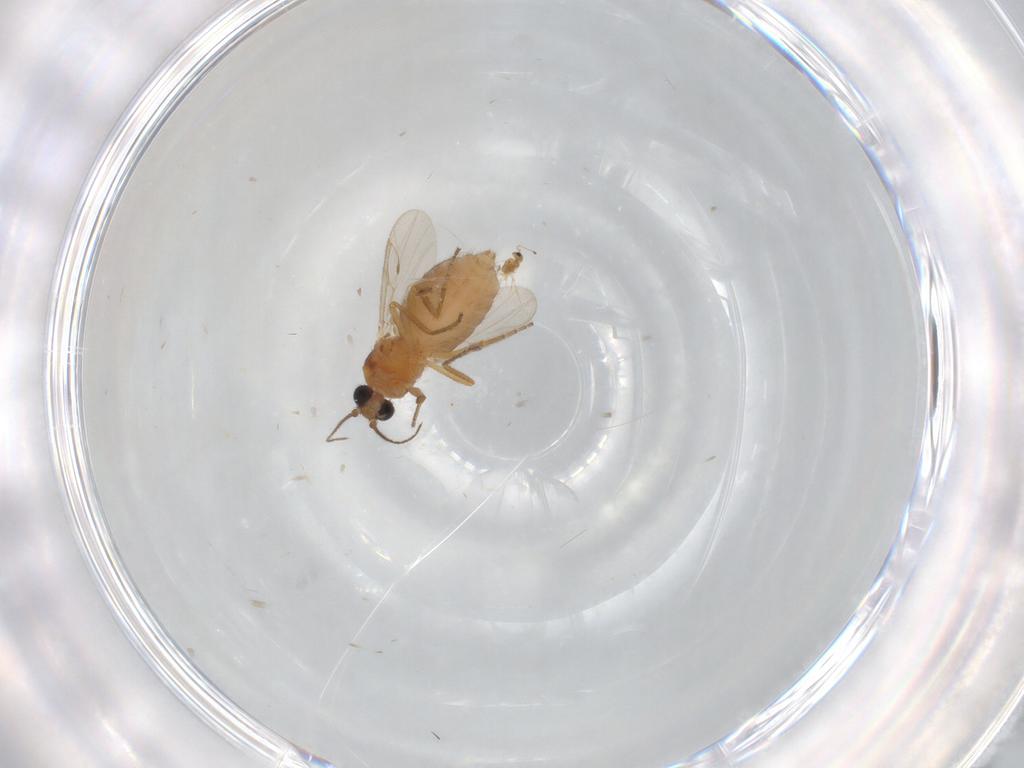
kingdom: Animalia
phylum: Arthropoda
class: Insecta
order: Diptera
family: Ceratopogonidae
